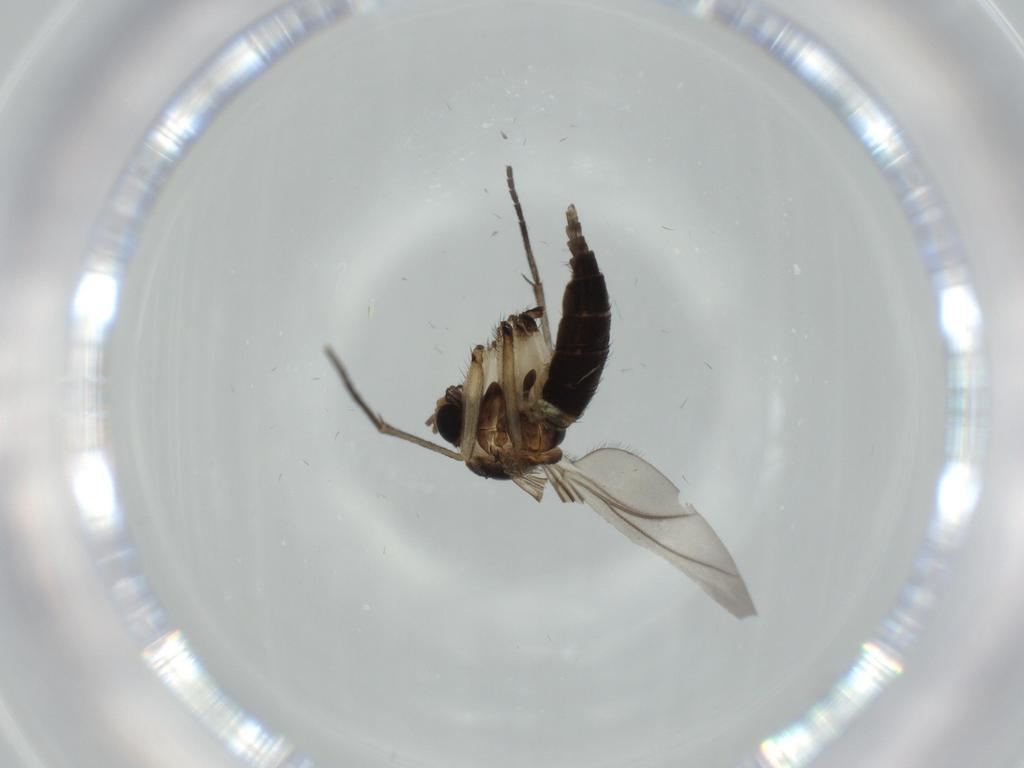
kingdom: Animalia
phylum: Arthropoda
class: Insecta
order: Diptera
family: Sciaridae
